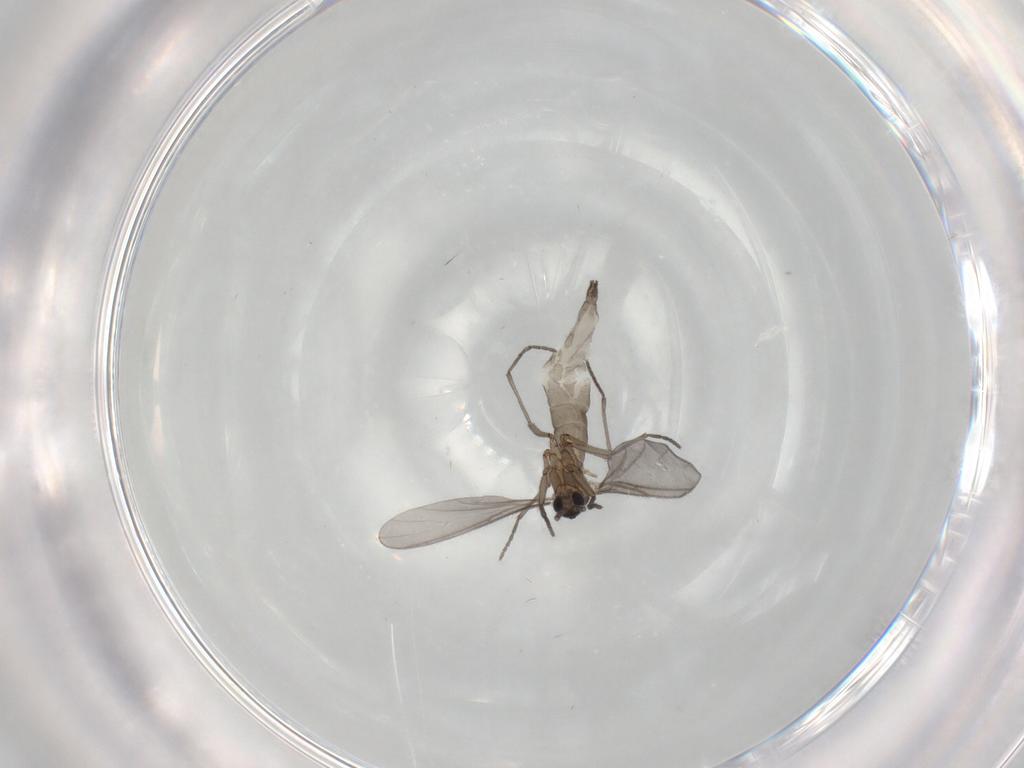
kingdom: Animalia
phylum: Arthropoda
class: Insecta
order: Diptera
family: Sciaridae
